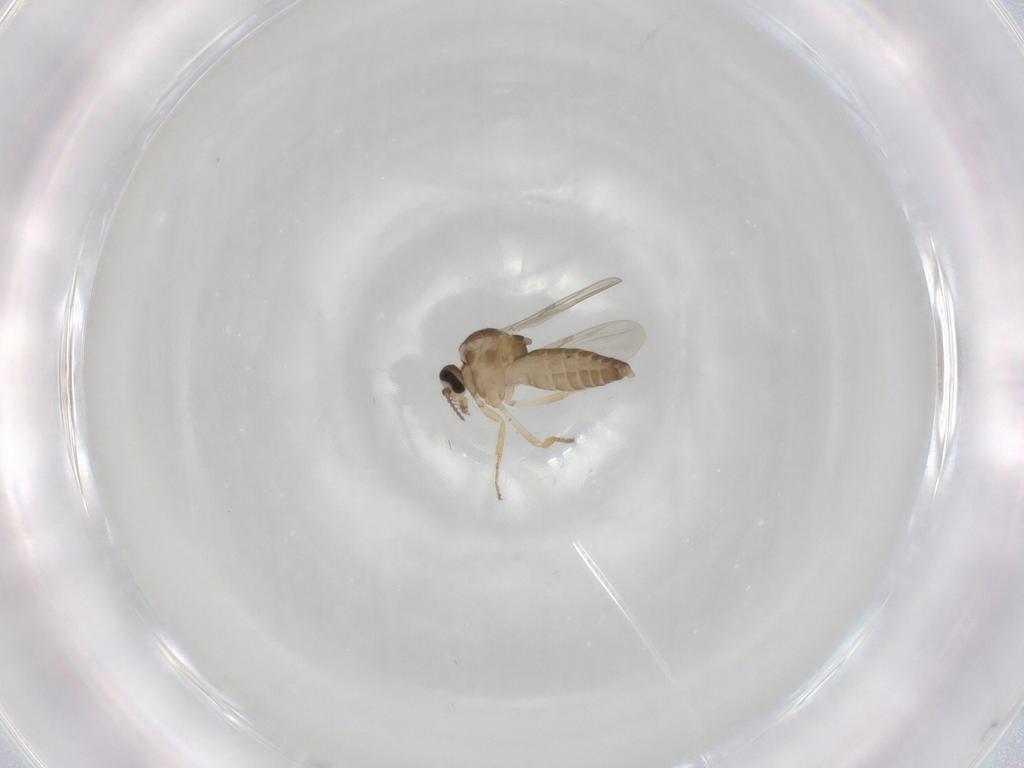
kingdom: Animalia
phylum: Arthropoda
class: Insecta
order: Diptera
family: Ceratopogonidae
